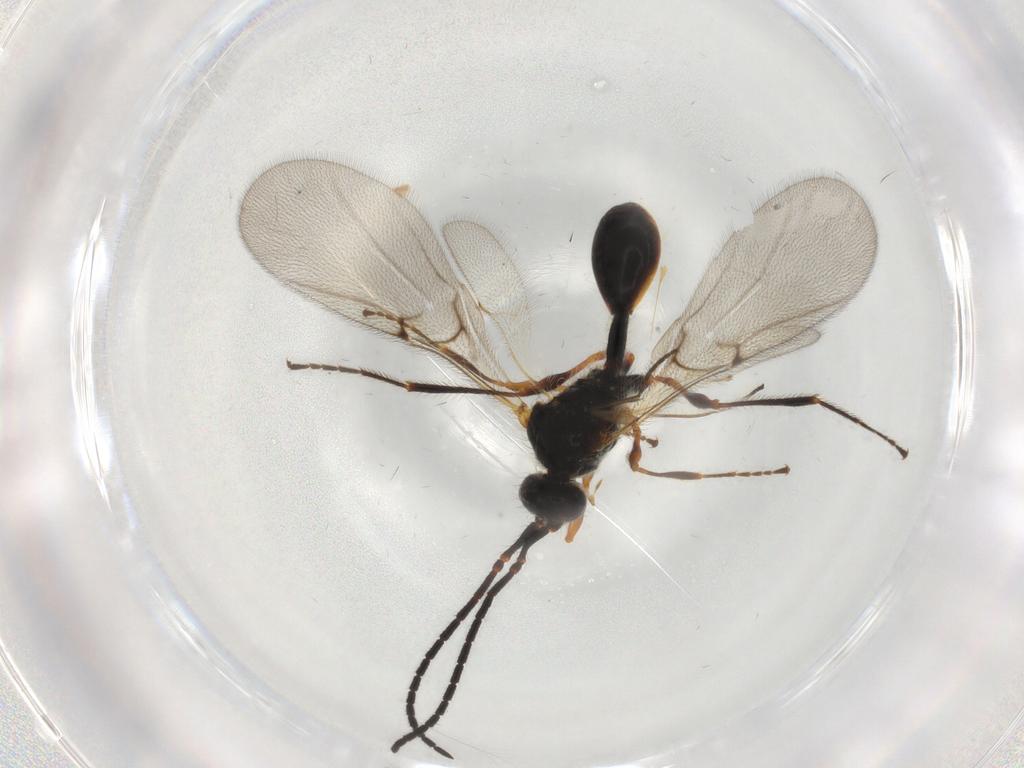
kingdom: Animalia
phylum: Arthropoda
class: Insecta
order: Hymenoptera
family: Diapriidae
